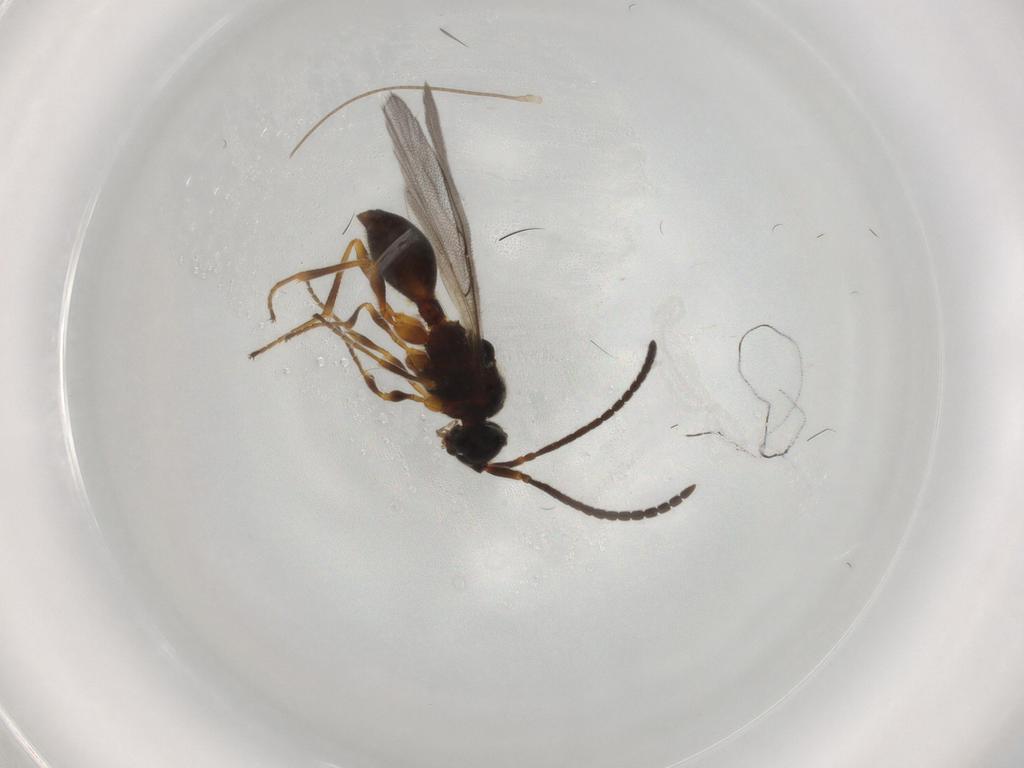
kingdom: Animalia
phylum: Arthropoda
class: Insecta
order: Hymenoptera
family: Diapriidae
